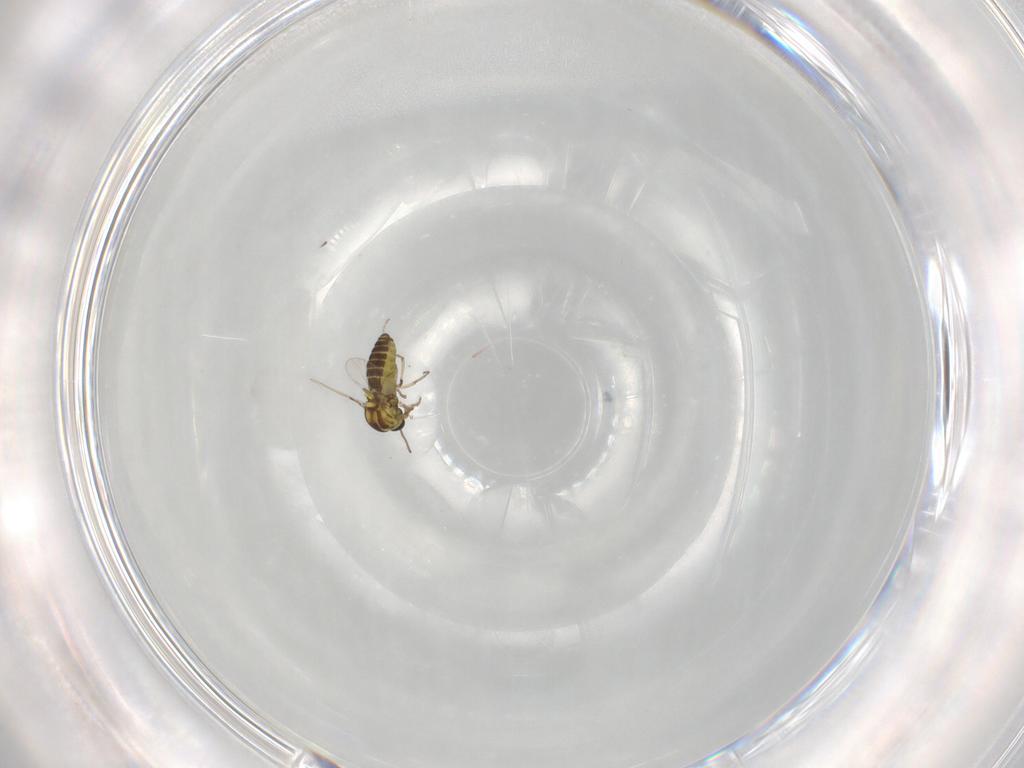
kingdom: Animalia
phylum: Arthropoda
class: Insecta
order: Diptera
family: Ceratopogonidae
